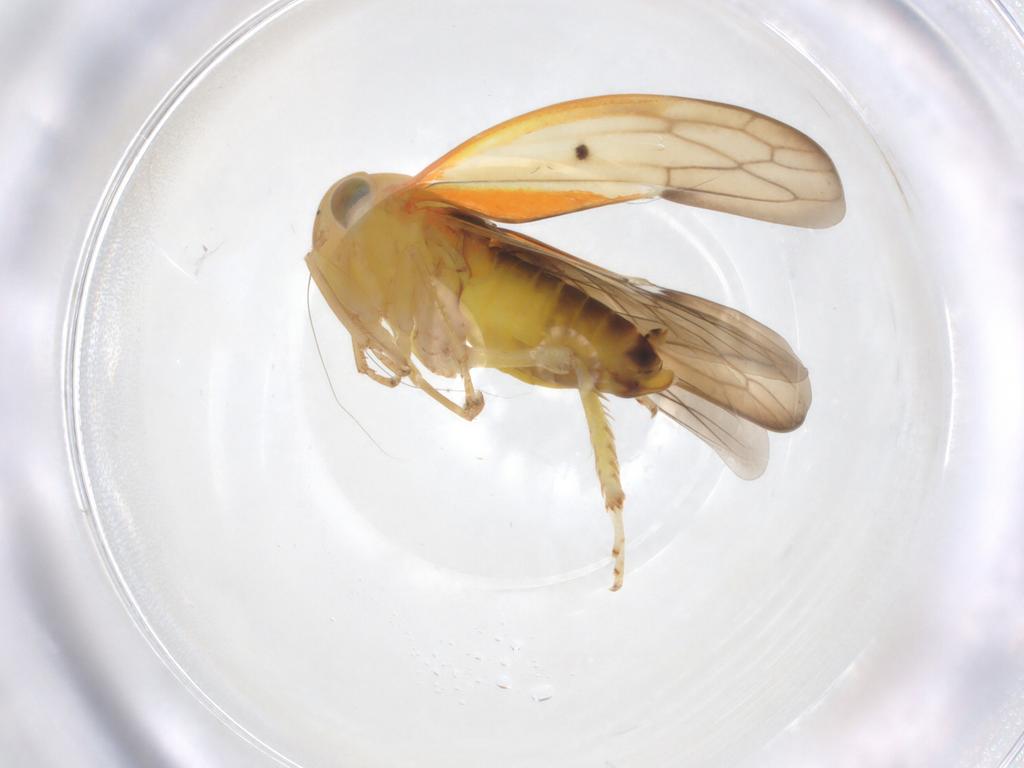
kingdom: Animalia
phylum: Arthropoda
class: Insecta
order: Hemiptera
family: Cicadellidae
